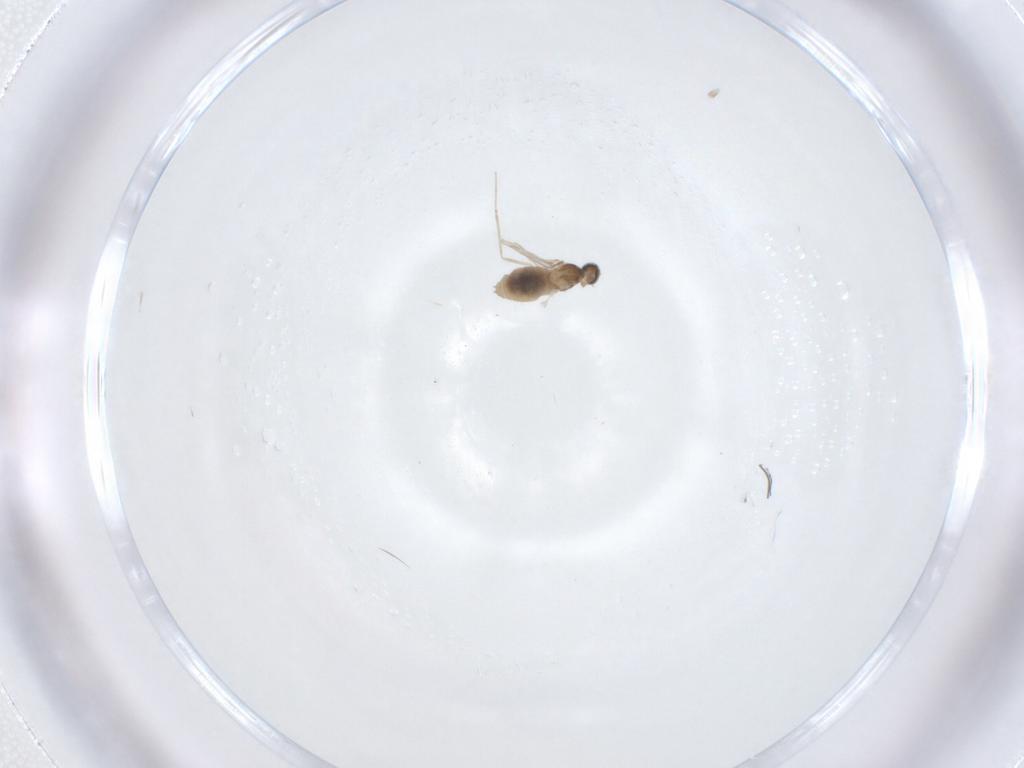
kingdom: Animalia
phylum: Arthropoda
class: Insecta
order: Diptera
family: Cecidomyiidae
